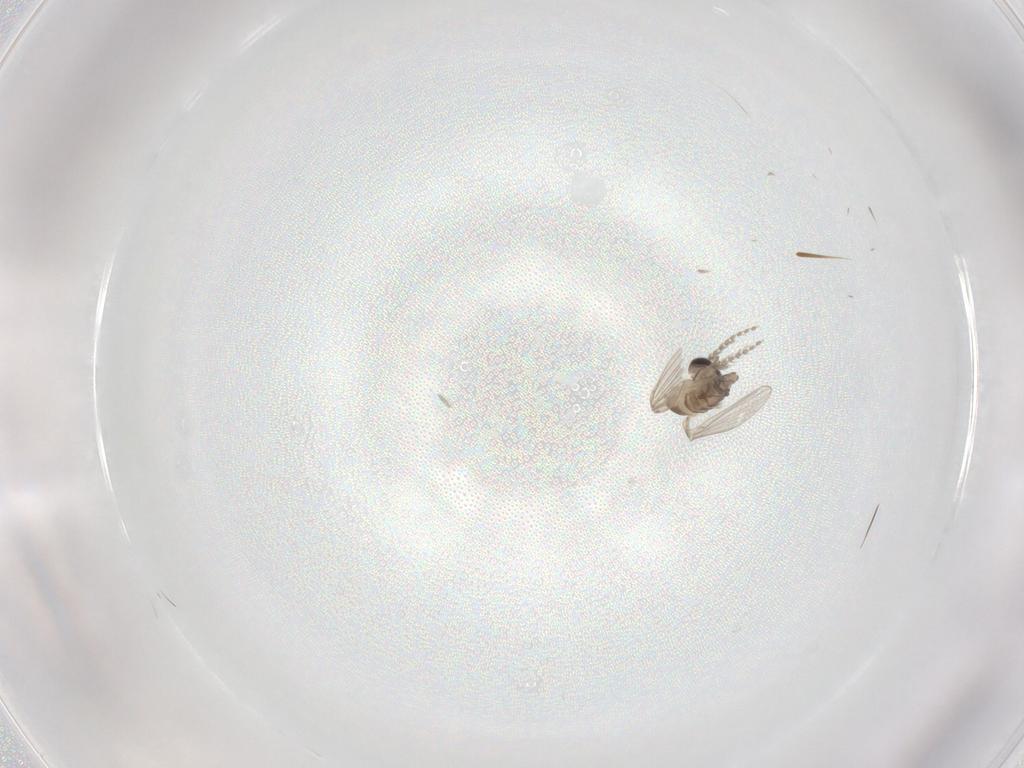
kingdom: Animalia
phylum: Arthropoda
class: Insecta
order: Diptera
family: Psychodidae
